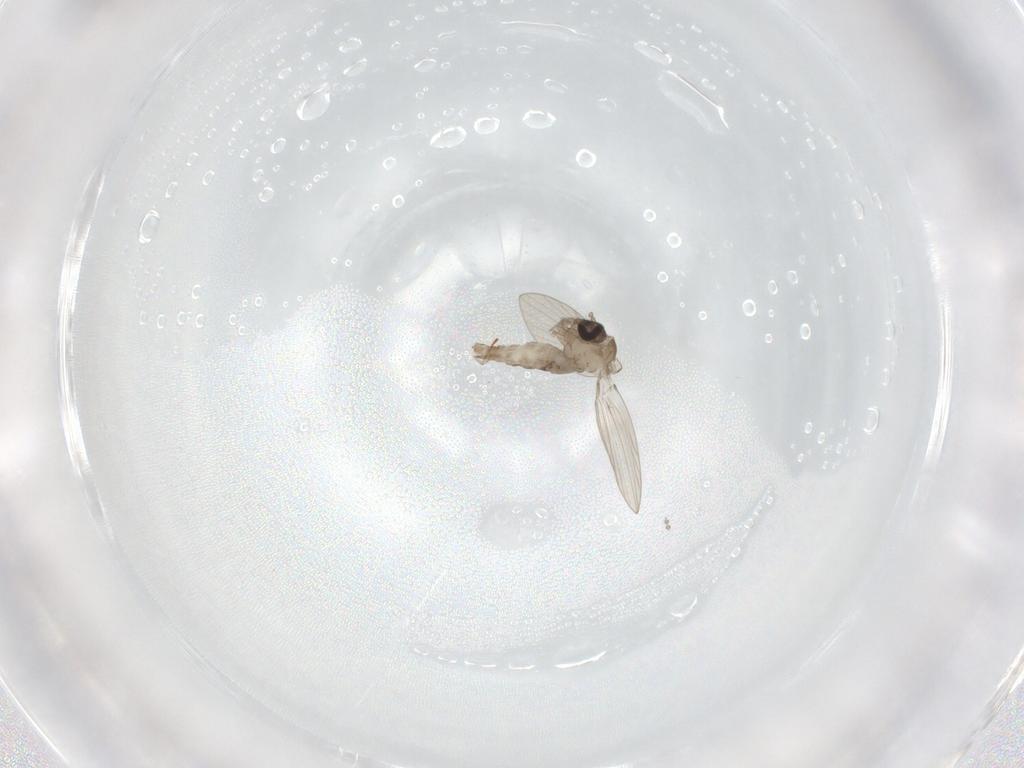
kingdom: Animalia
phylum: Arthropoda
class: Insecta
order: Diptera
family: Psychodidae
